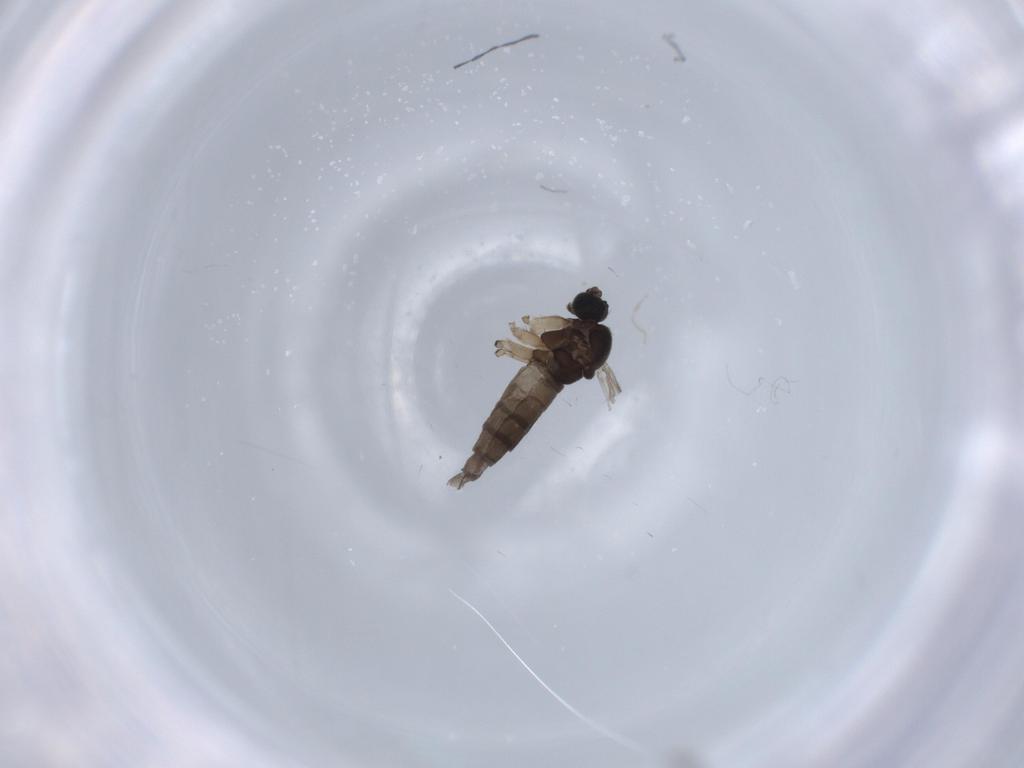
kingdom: Animalia
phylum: Arthropoda
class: Insecta
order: Diptera
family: Sciaridae
